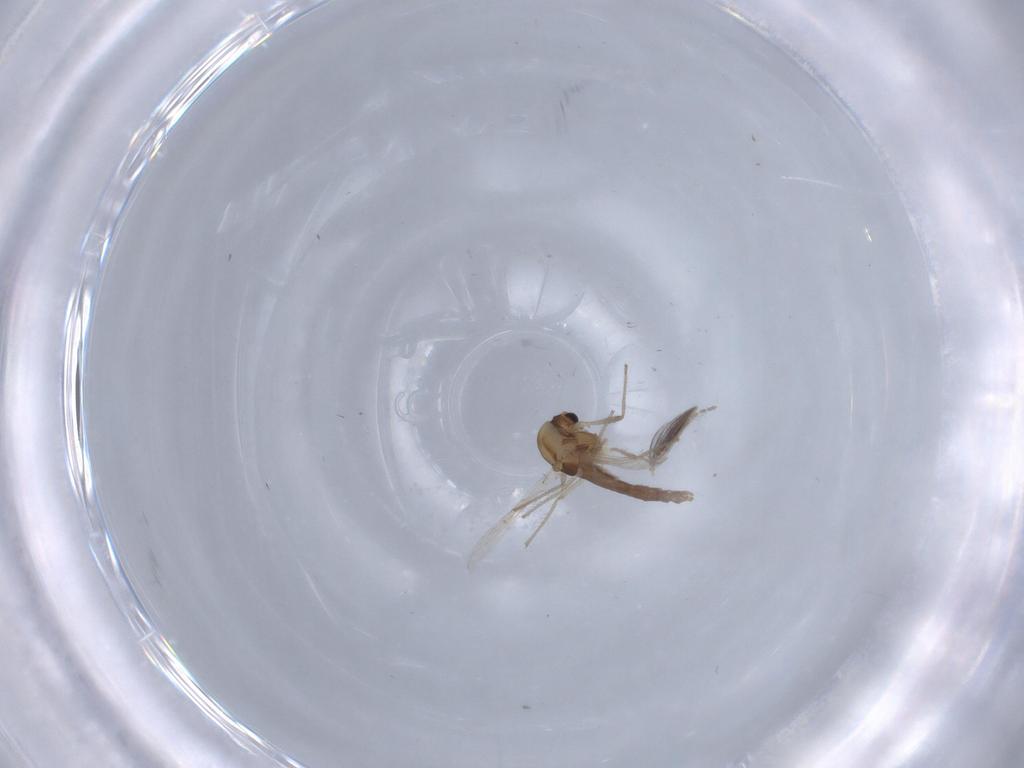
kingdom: Animalia
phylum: Arthropoda
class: Insecta
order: Diptera
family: Chironomidae
